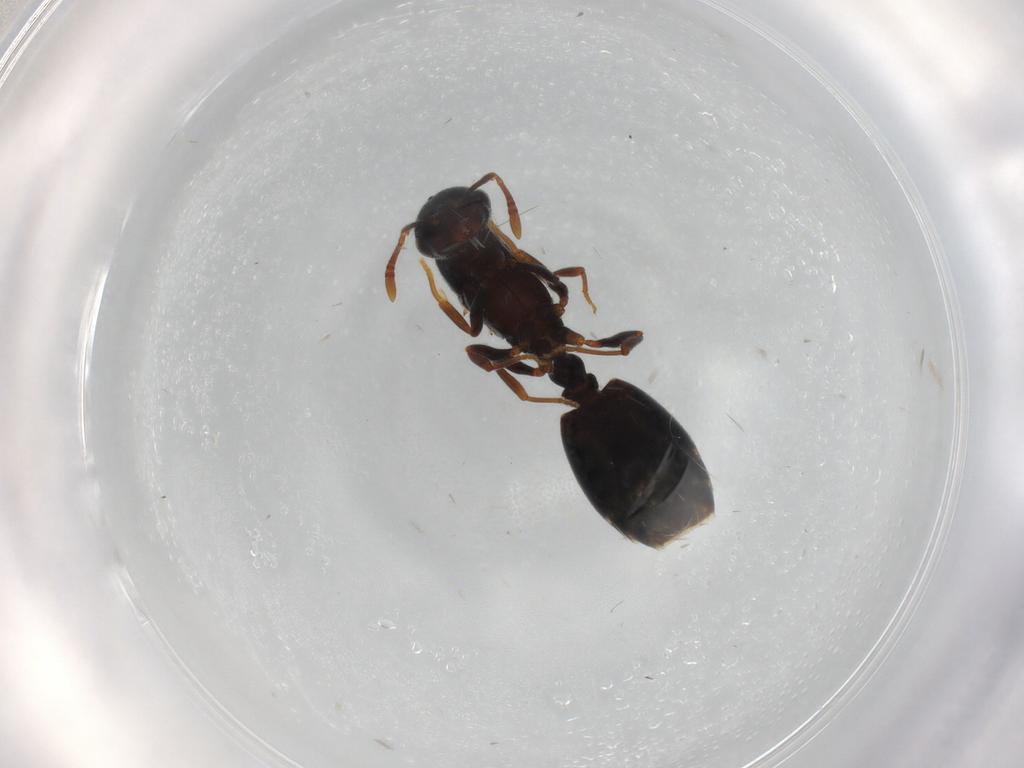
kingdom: Animalia
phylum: Arthropoda
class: Insecta
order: Hymenoptera
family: Formicidae
